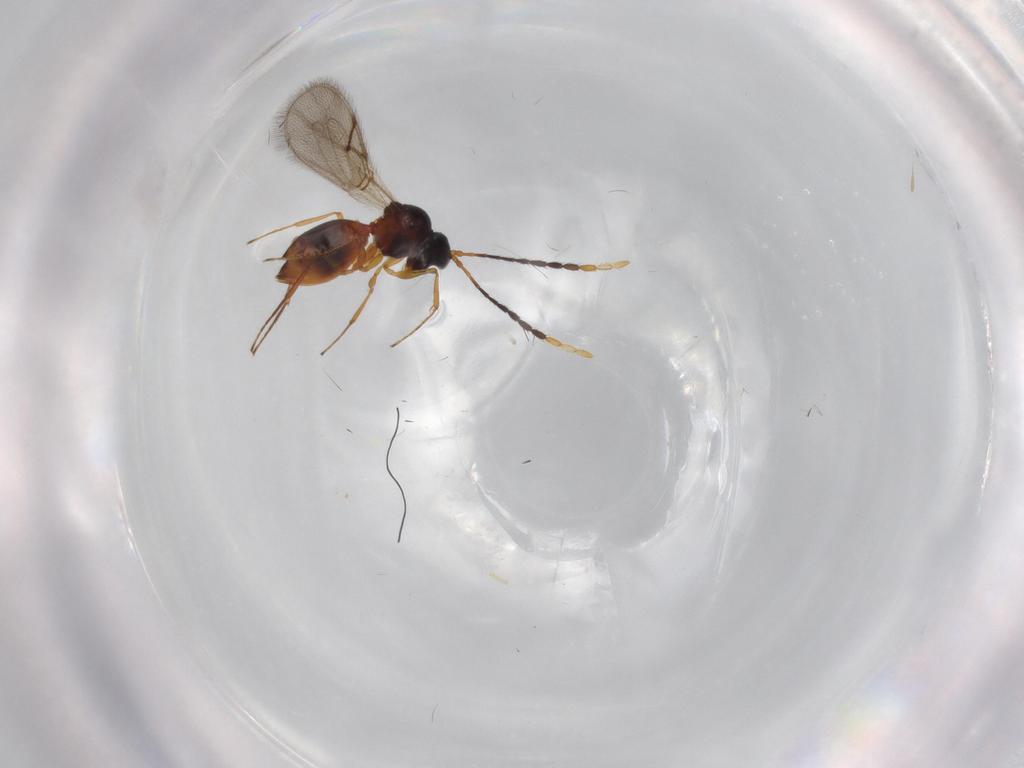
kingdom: Animalia
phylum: Arthropoda
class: Insecta
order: Hymenoptera
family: Figitidae
